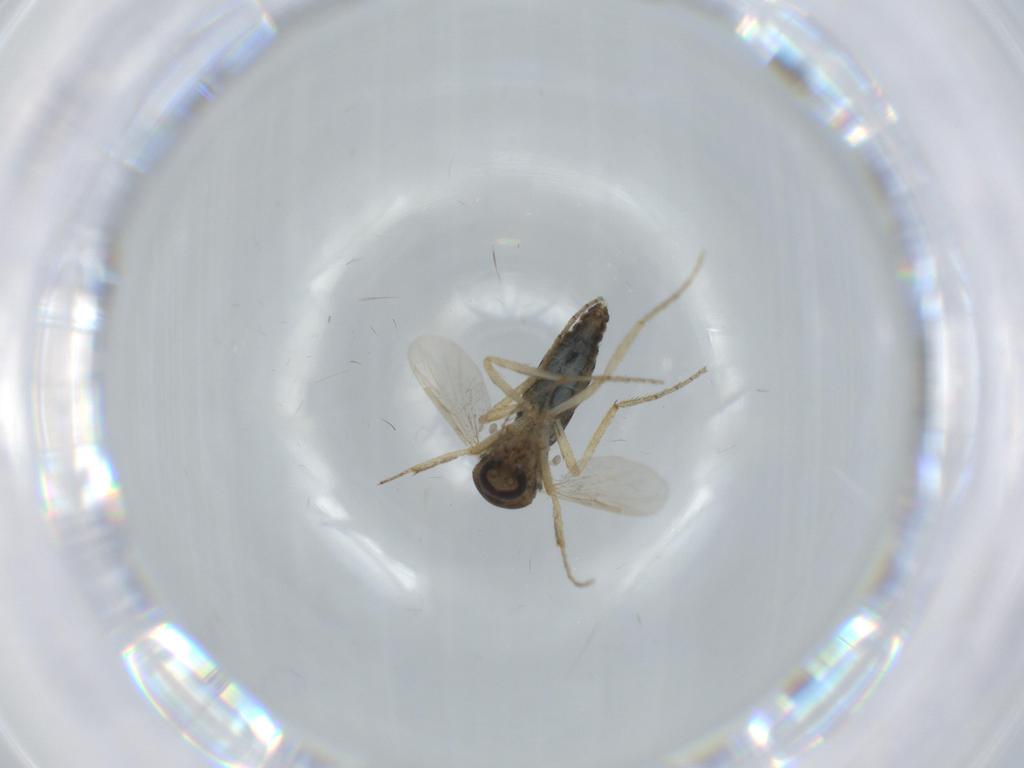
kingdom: Animalia
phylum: Arthropoda
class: Insecta
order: Diptera
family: Ceratopogonidae
